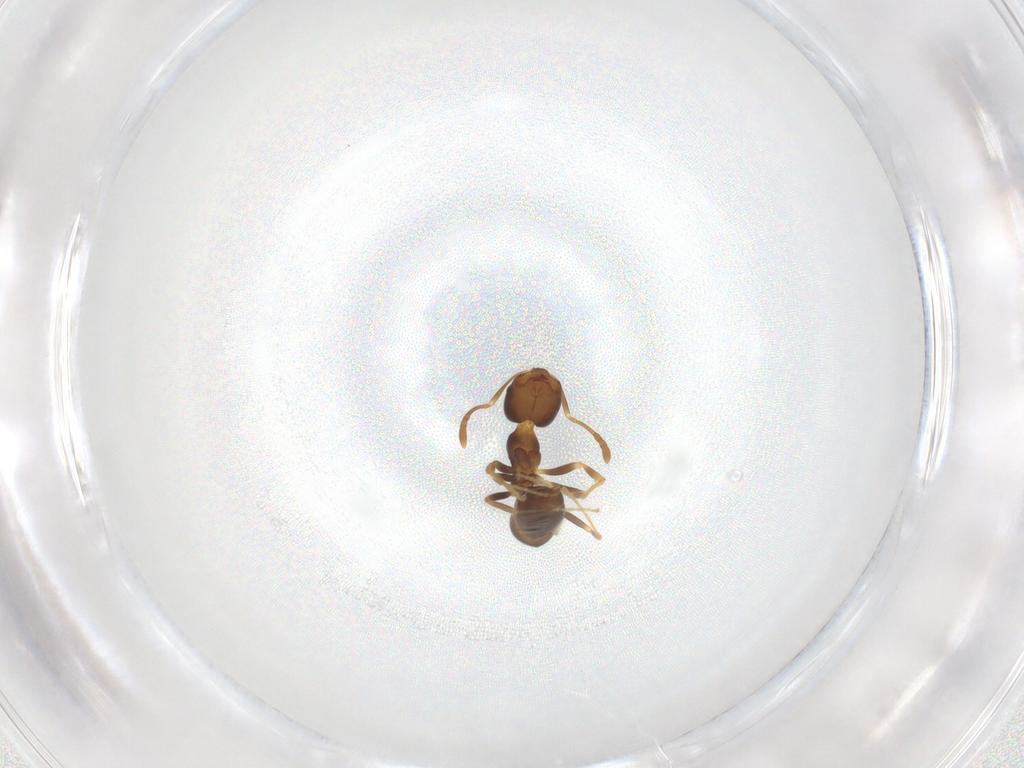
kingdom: Animalia
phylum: Arthropoda
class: Insecta
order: Hymenoptera
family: Formicidae
